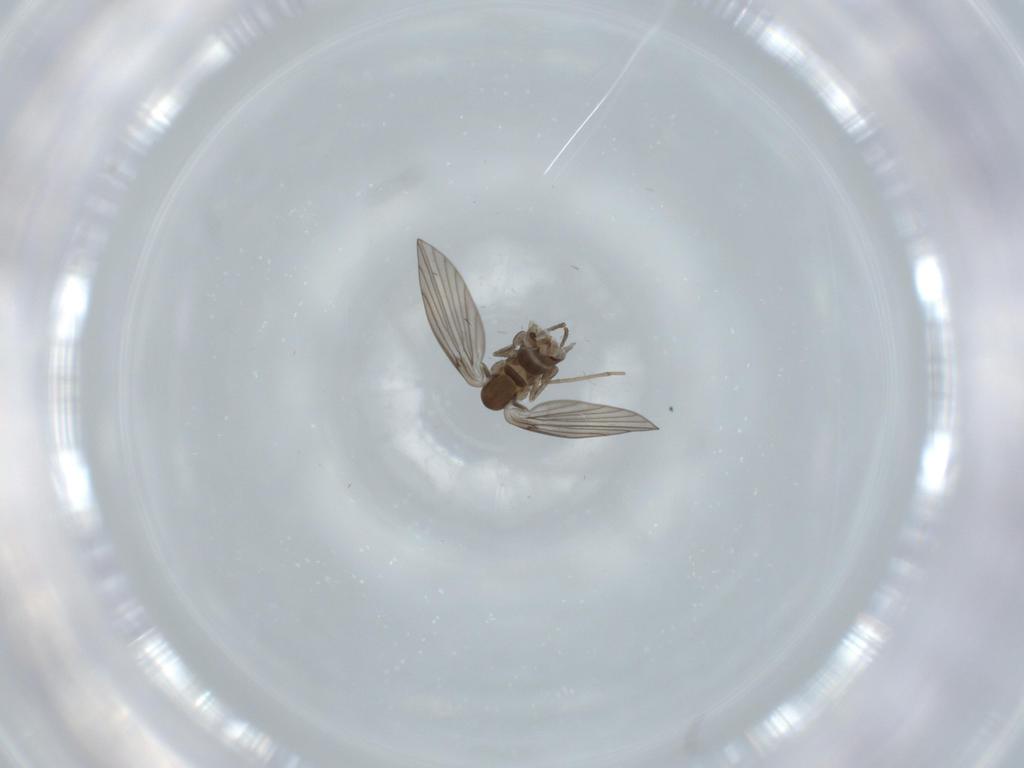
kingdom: Animalia
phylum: Arthropoda
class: Insecta
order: Diptera
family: Psychodidae
